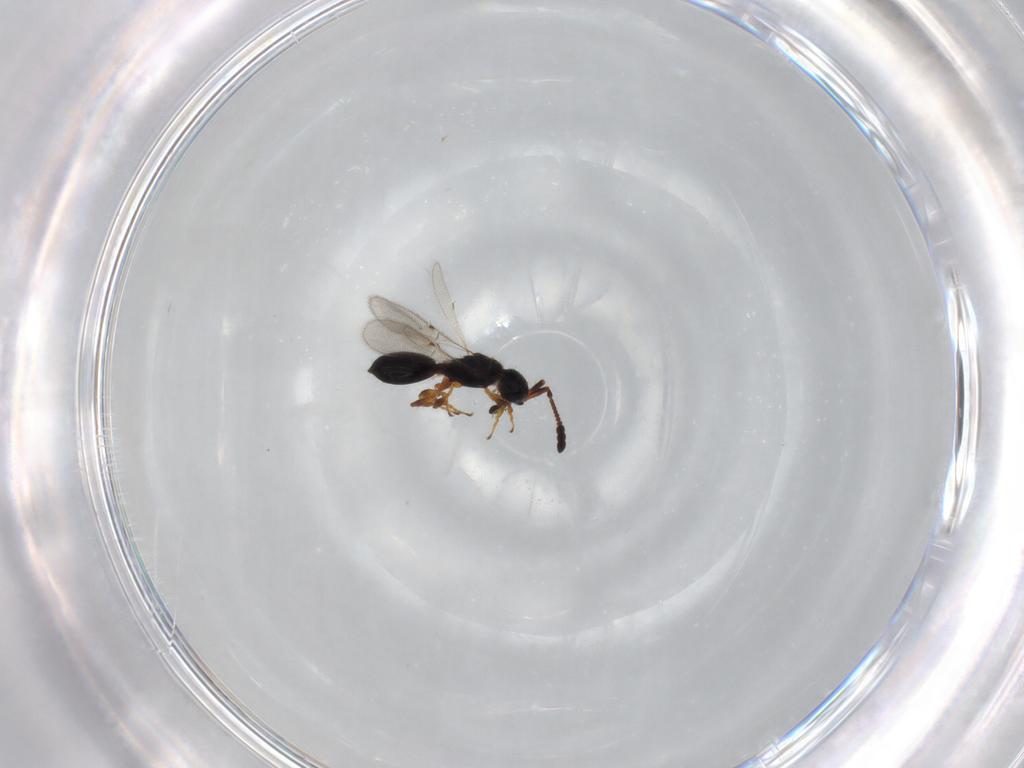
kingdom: Animalia
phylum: Arthropoda
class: Insecta
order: Hymenoptera
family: Diapriidae
